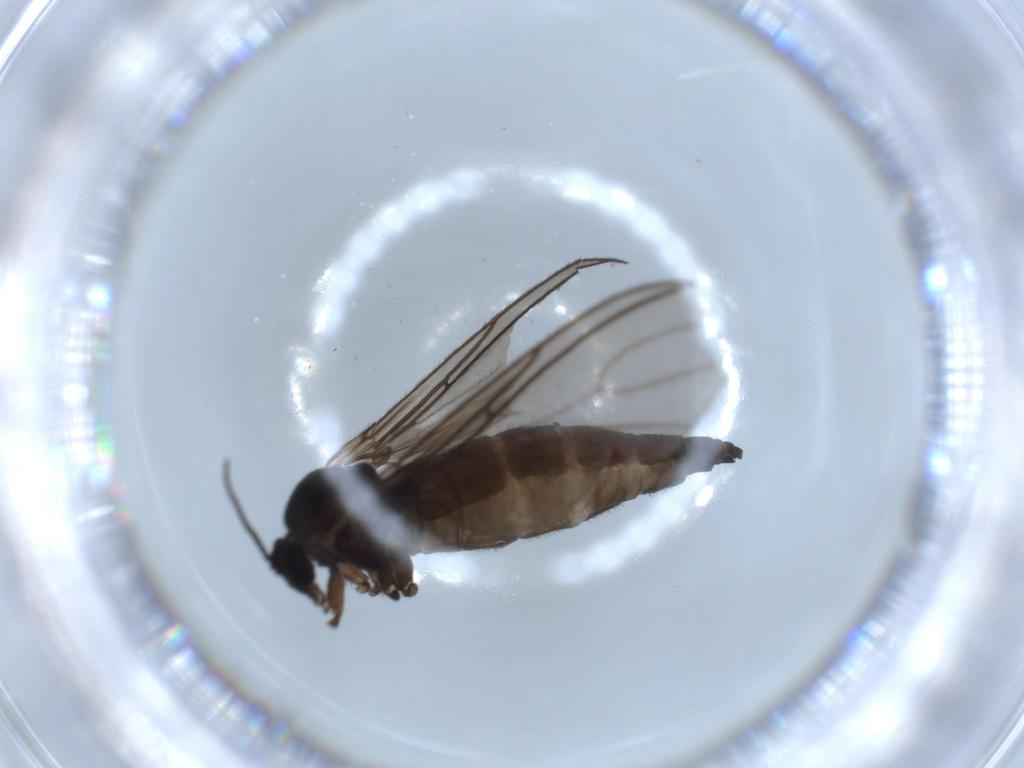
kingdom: Animalia
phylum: Arthropoda
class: Insecta
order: Diptera
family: Sciaridae
